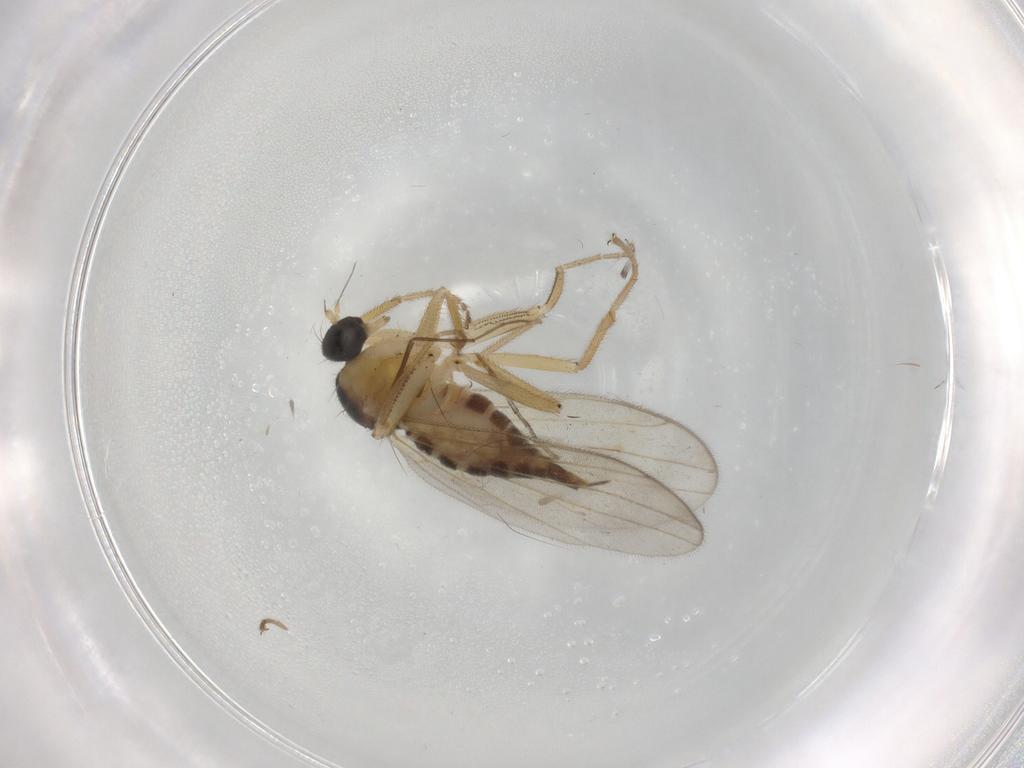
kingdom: Animalia
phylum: Arthropoda
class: Insecta
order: Diptera
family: Hybotidae
